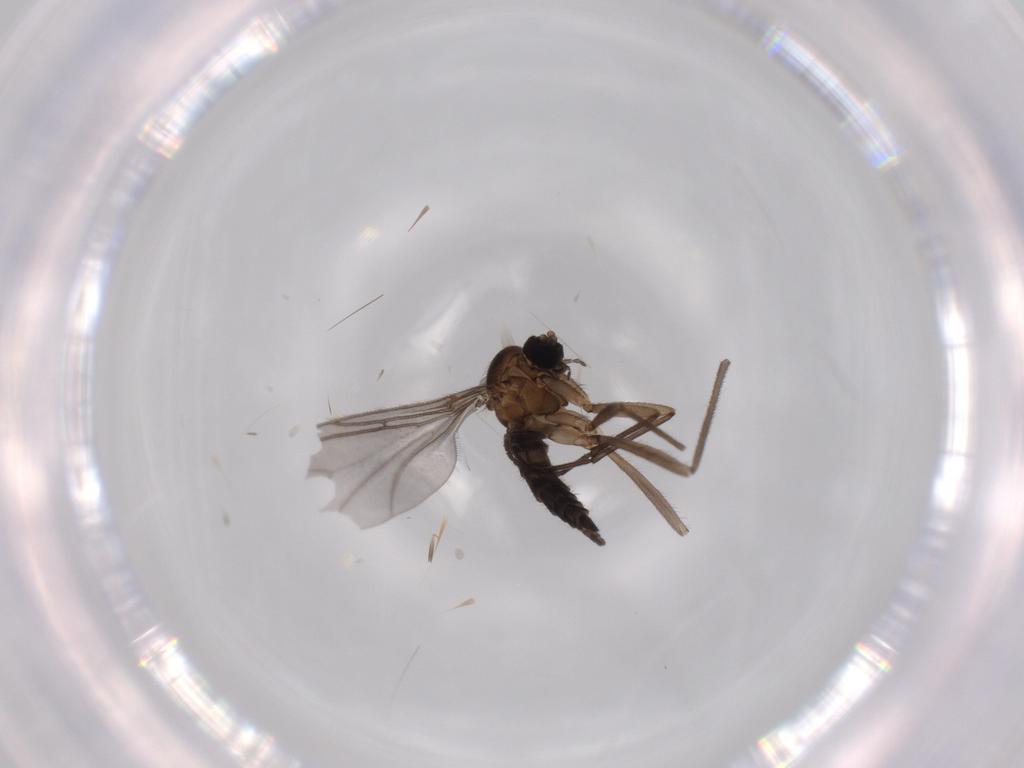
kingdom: Animalia
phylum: Arthropoda
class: Insecta
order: Diptera
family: Sciaridae
